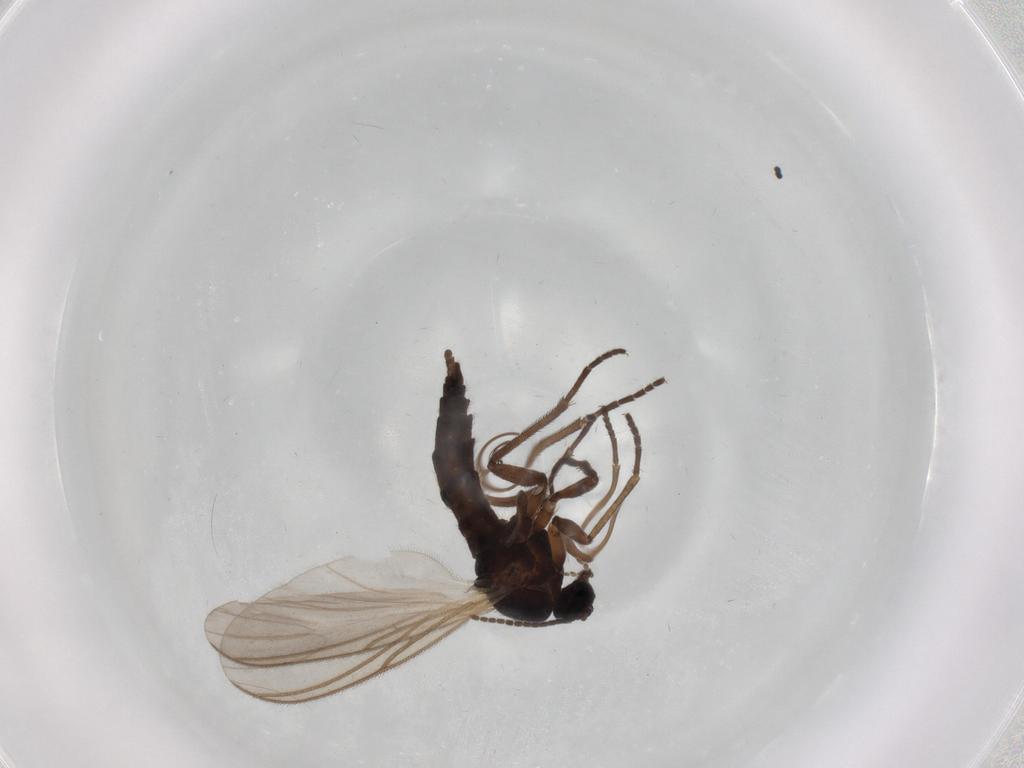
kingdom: Animalia
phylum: Arthropoda
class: Insecta
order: Diptera
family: Sciaridae
